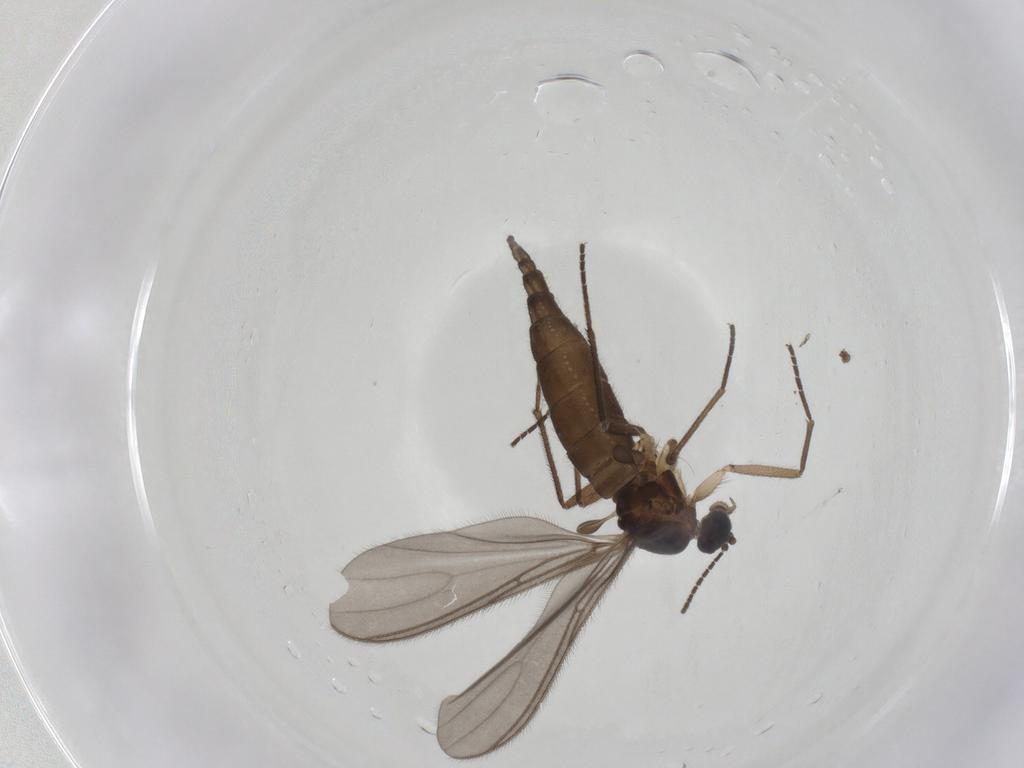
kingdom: Animalia
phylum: Arthropoda
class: Insecta
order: Diptera
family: Sciaridae
